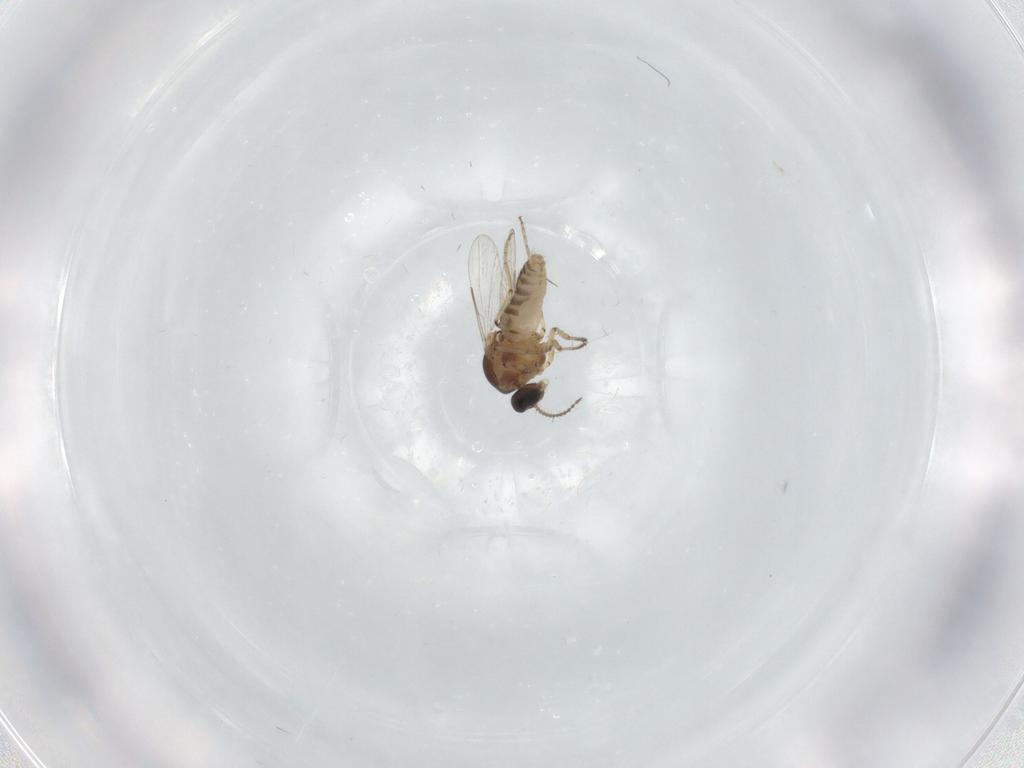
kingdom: Animalia
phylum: Arthropoda
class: Insecta
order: Diptera
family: Ceratopogonidae
